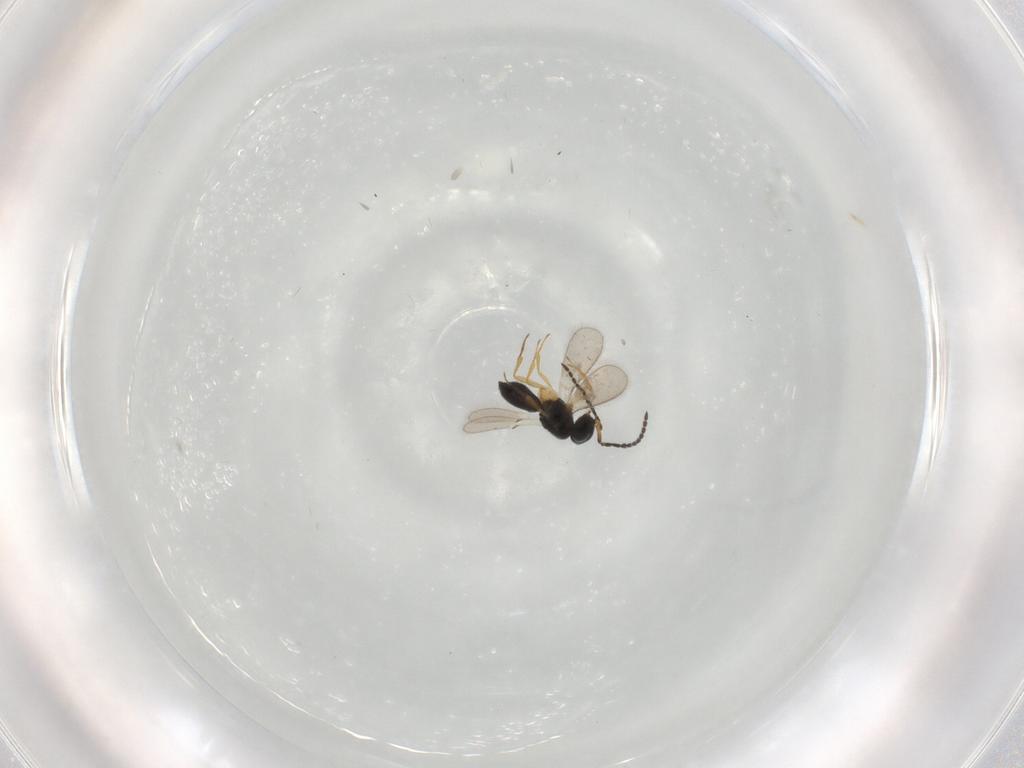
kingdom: Animalia
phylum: Arthropoda
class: Insecta
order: Hymenoptera
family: Scelionidae
